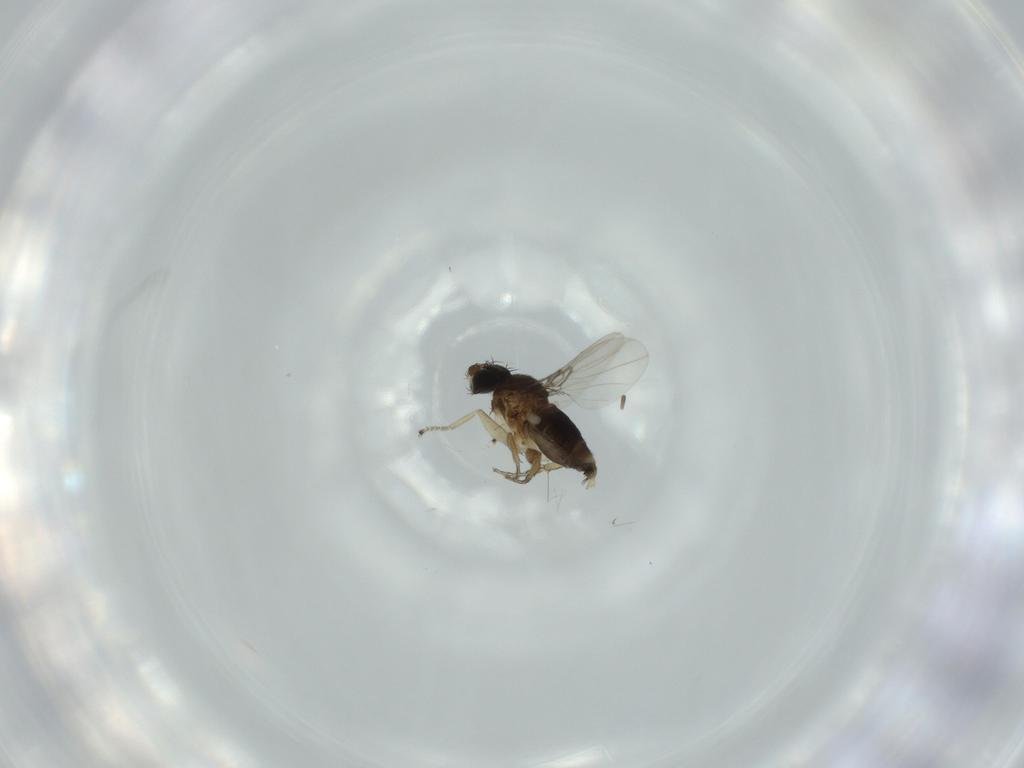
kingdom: Animalia
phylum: Arthropoda
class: Insecta
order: Diptera
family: Phoridae
